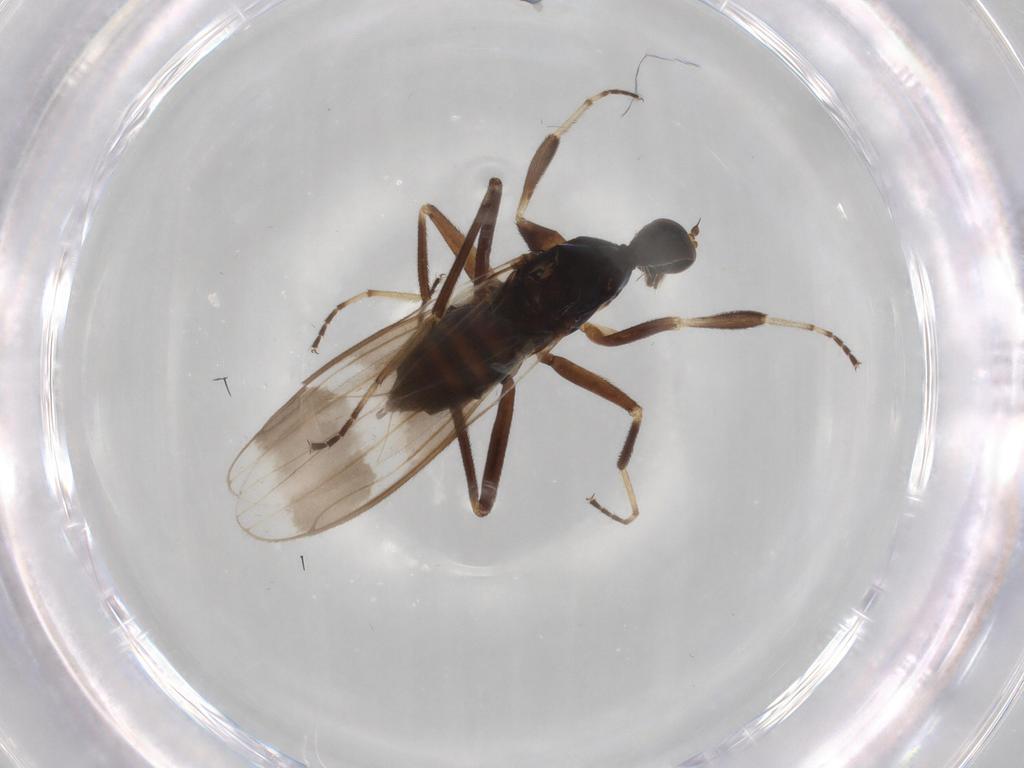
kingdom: Animalia
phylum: Arthropoda
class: Insecta
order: Diptera
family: Hybotidae
